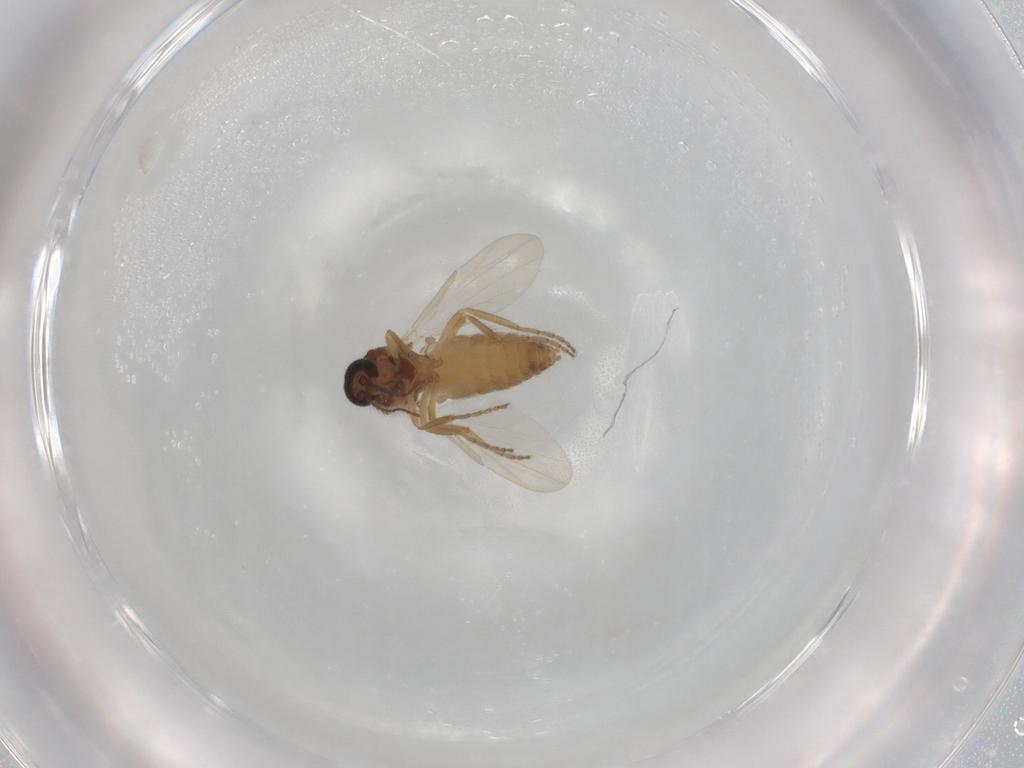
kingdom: Animalia
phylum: Arthropoda
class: Insecta
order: Diptera
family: Ceratopogonidae
